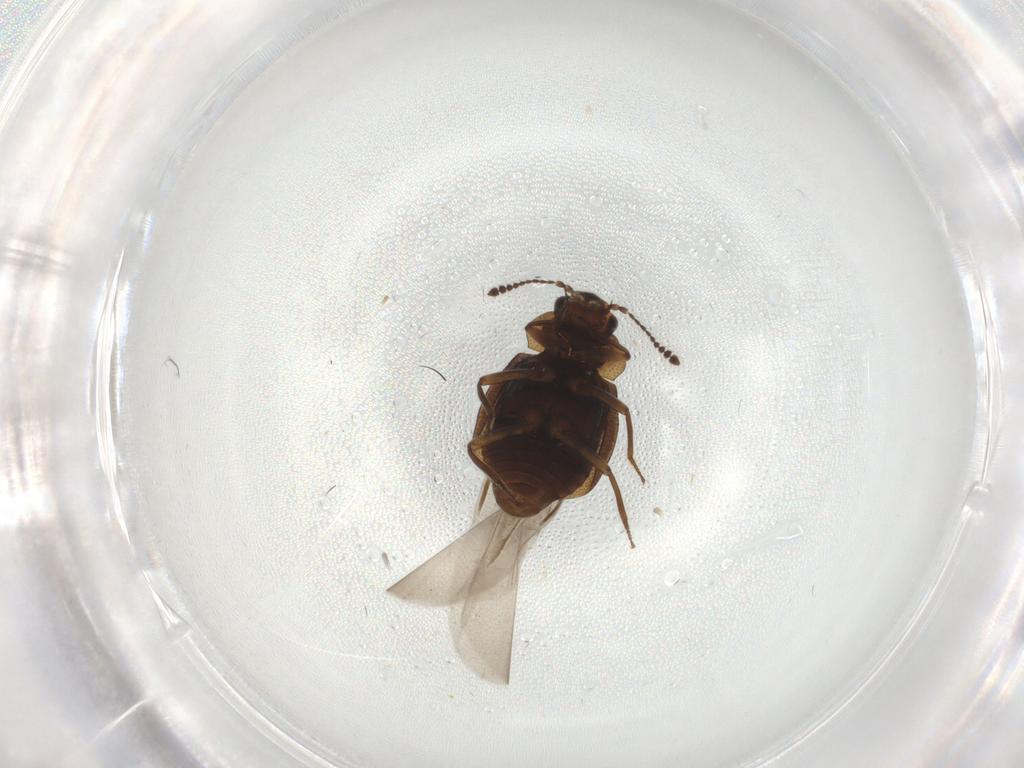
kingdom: Animalia
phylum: Arthropoda
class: Insecta
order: Coleoptera
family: Staphylinidae
